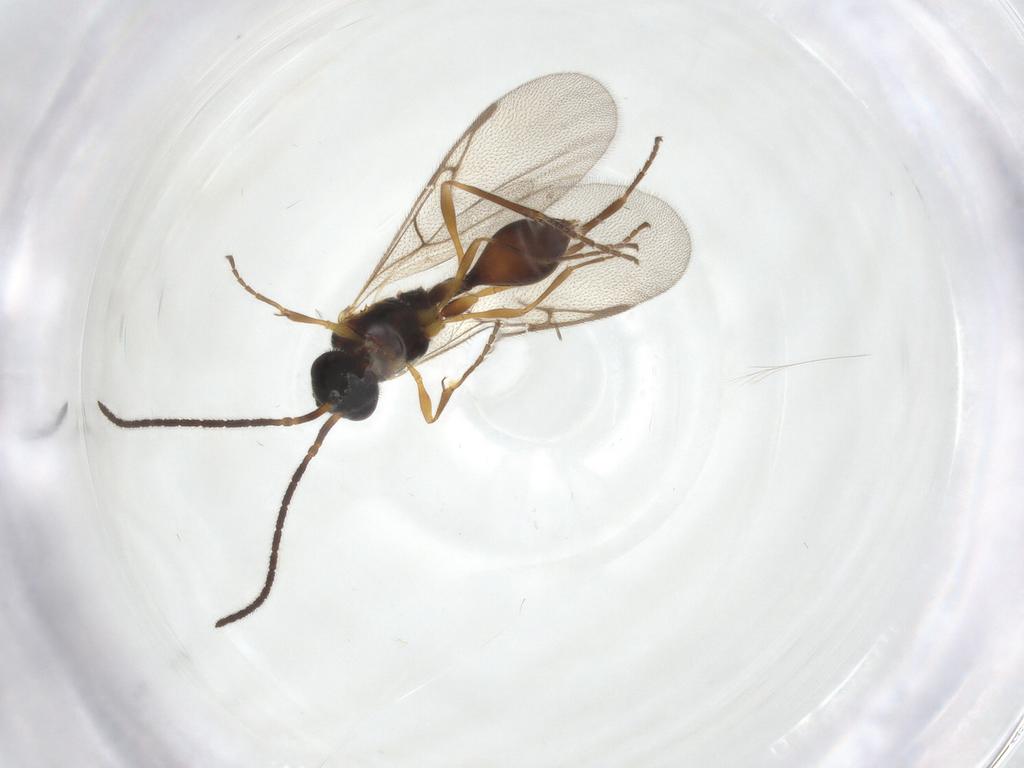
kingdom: Animalia
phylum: Arthropoda
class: Insecta
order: Hymenoptera
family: Diapriidae
